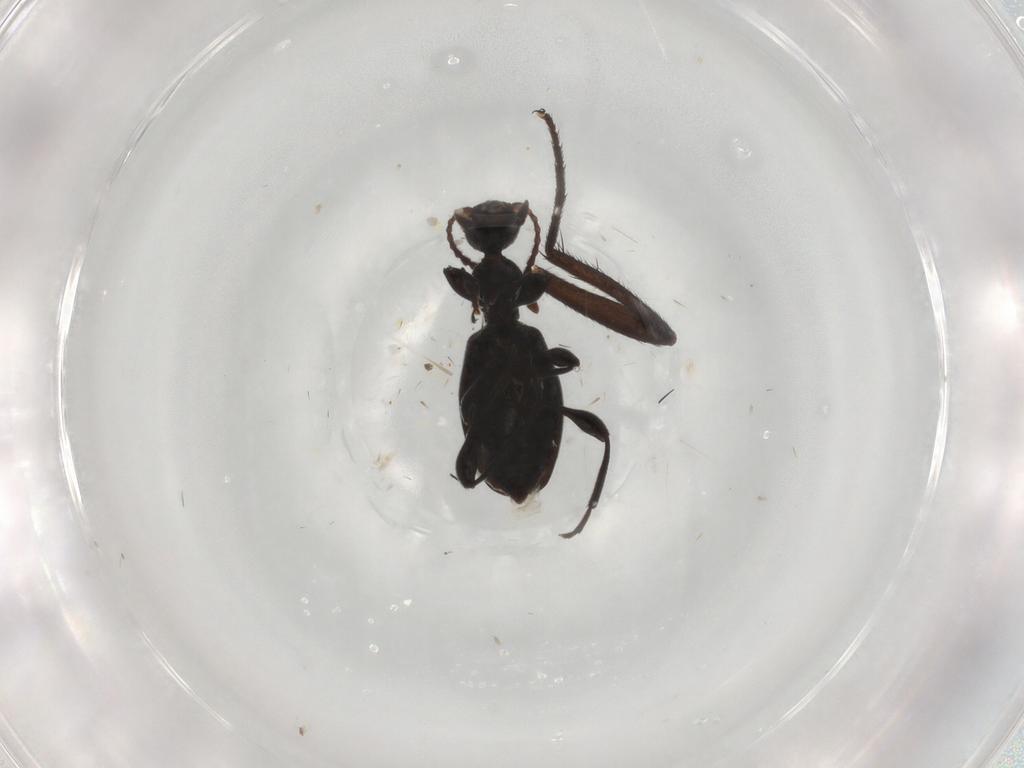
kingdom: Animalia
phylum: Arthropoda
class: Insecta
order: Coleoptera
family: Anthicidae
